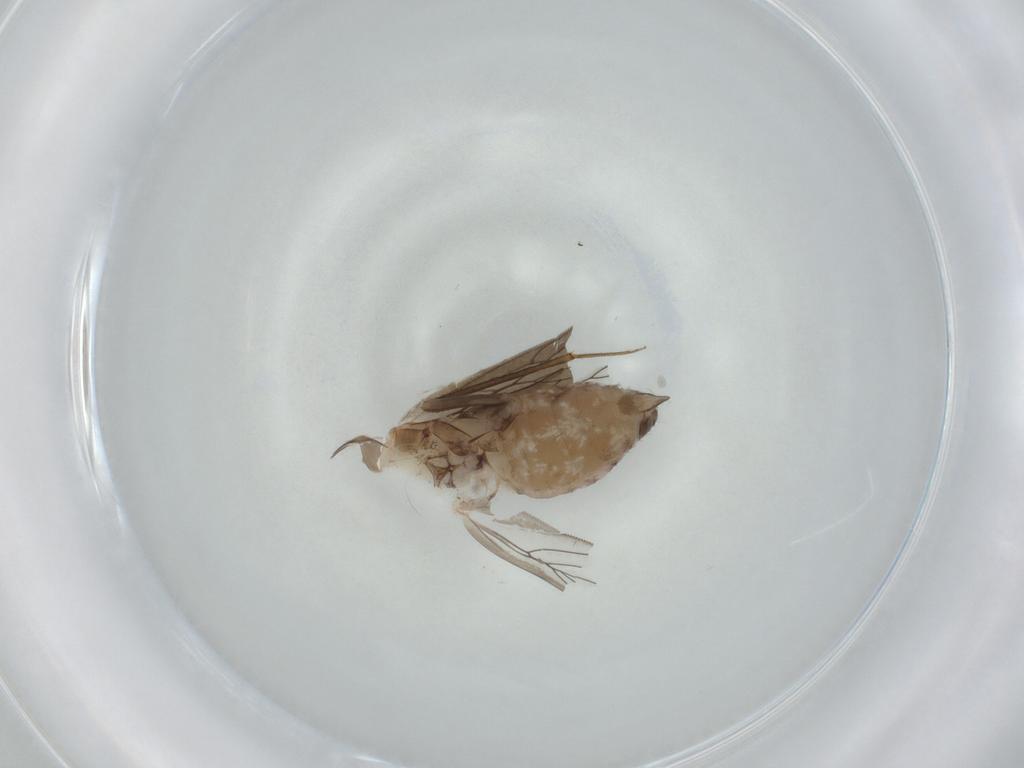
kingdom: Animalia
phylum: Arthropoda
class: Insecta
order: Psocodea
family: Lepidopsocidae
